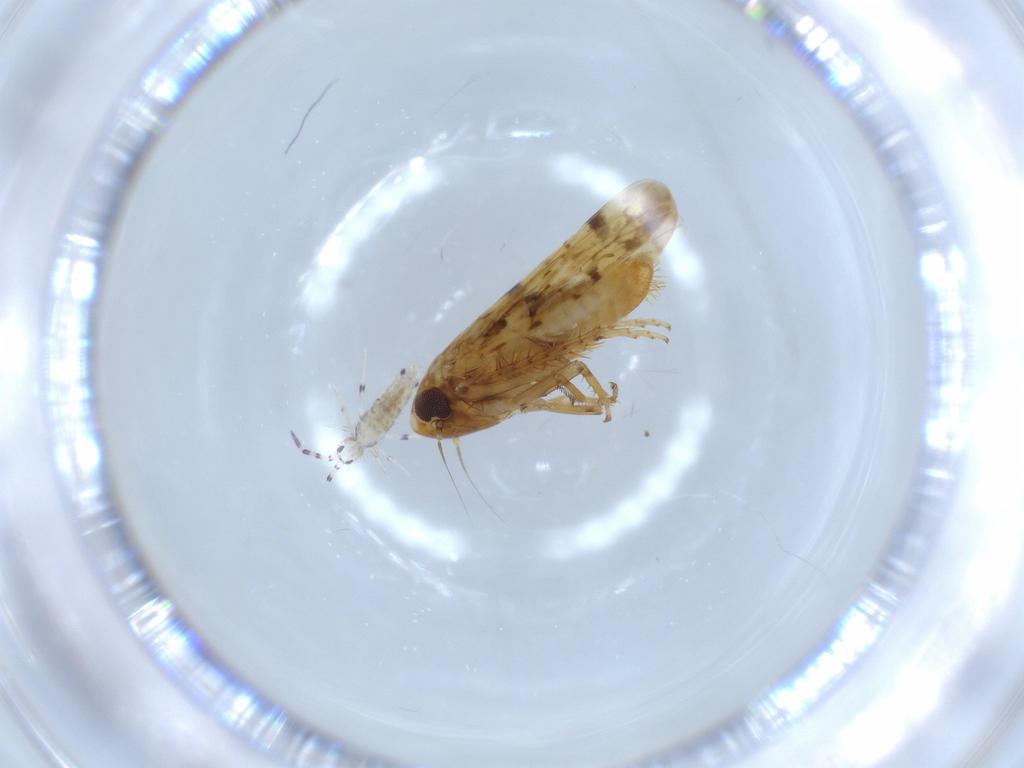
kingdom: Animalia
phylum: Arthropoda
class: Collembola
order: Entomobryomorpha
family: Entomobryidae
